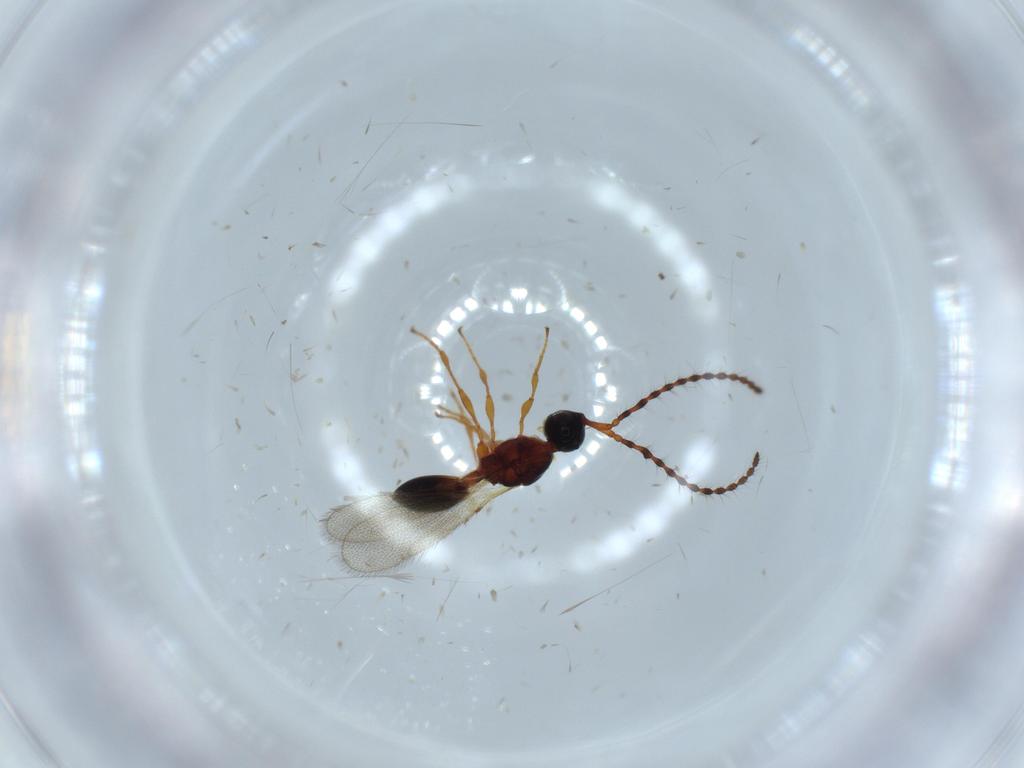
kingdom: Animalia
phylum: Arthropoda
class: Insecta
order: Hymenoptera
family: Diapriidae
